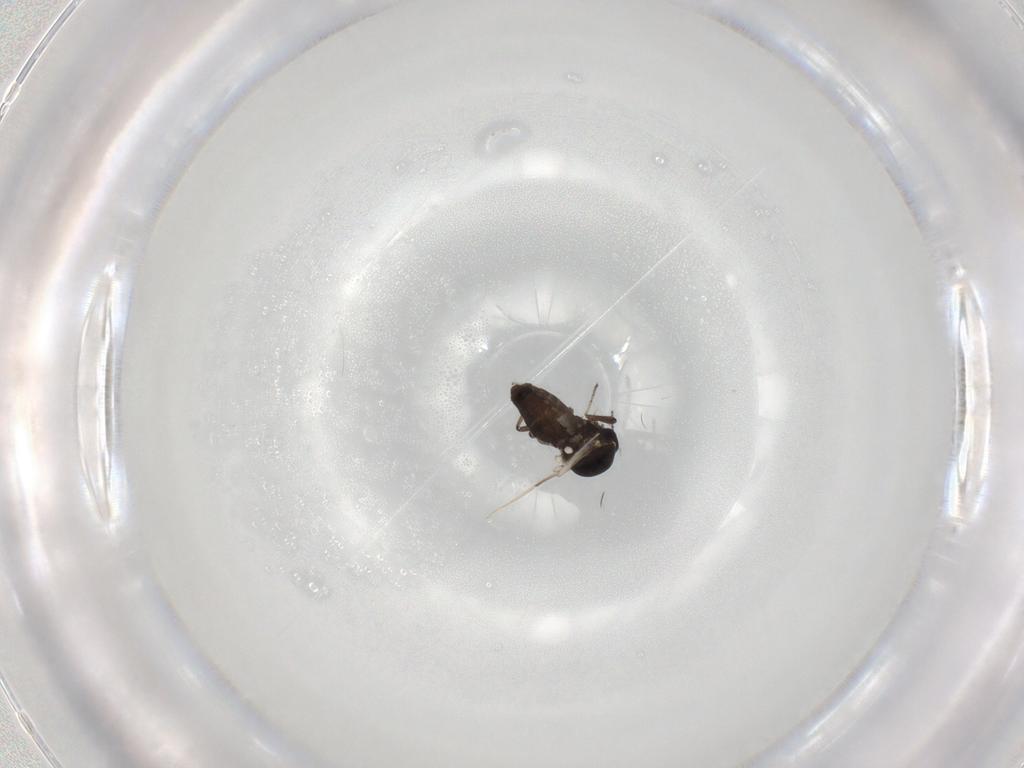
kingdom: Animalia
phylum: Arthropoda
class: Insecta
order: Diptera
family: Ceratopogonidae
